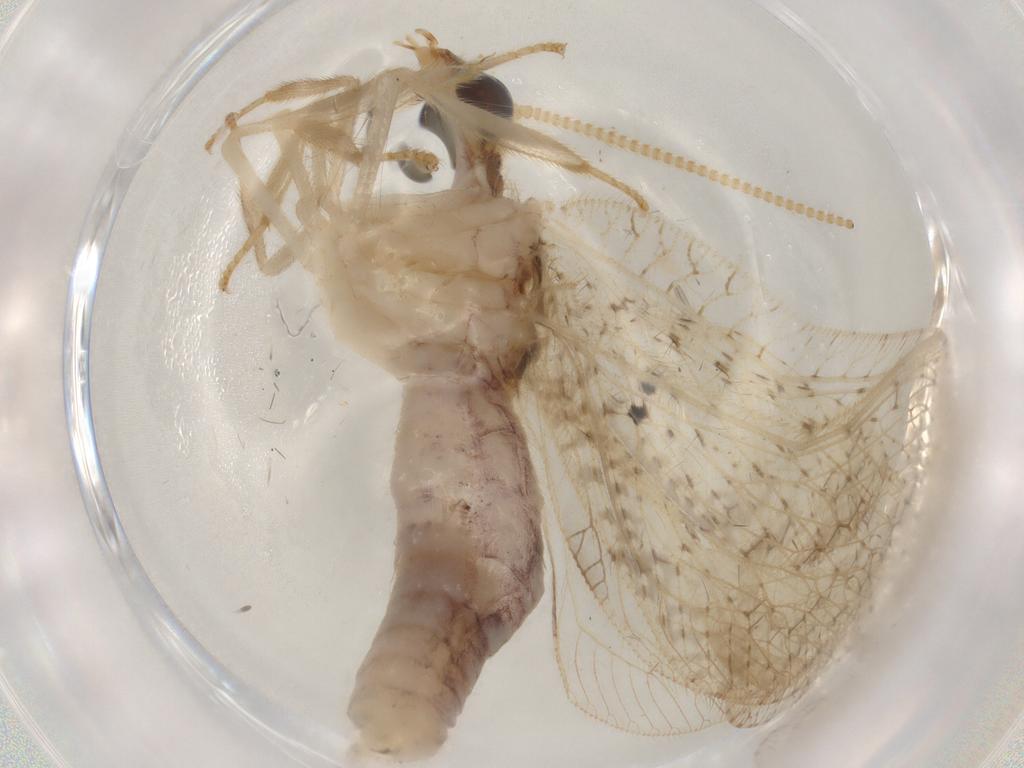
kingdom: Animalia
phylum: Arthropoda
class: Insecta
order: Neuroptera
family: Hemerobiidae
